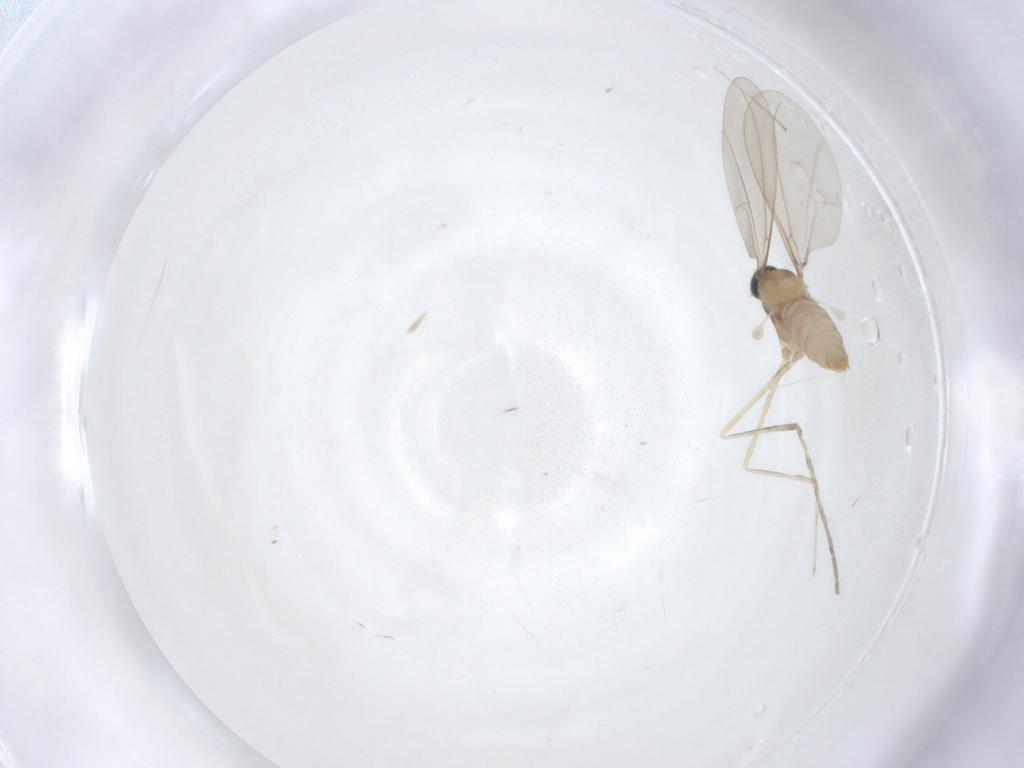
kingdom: Animalia
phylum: Arthropoda
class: Insecta
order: Diptera
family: Cecidomyiidae
